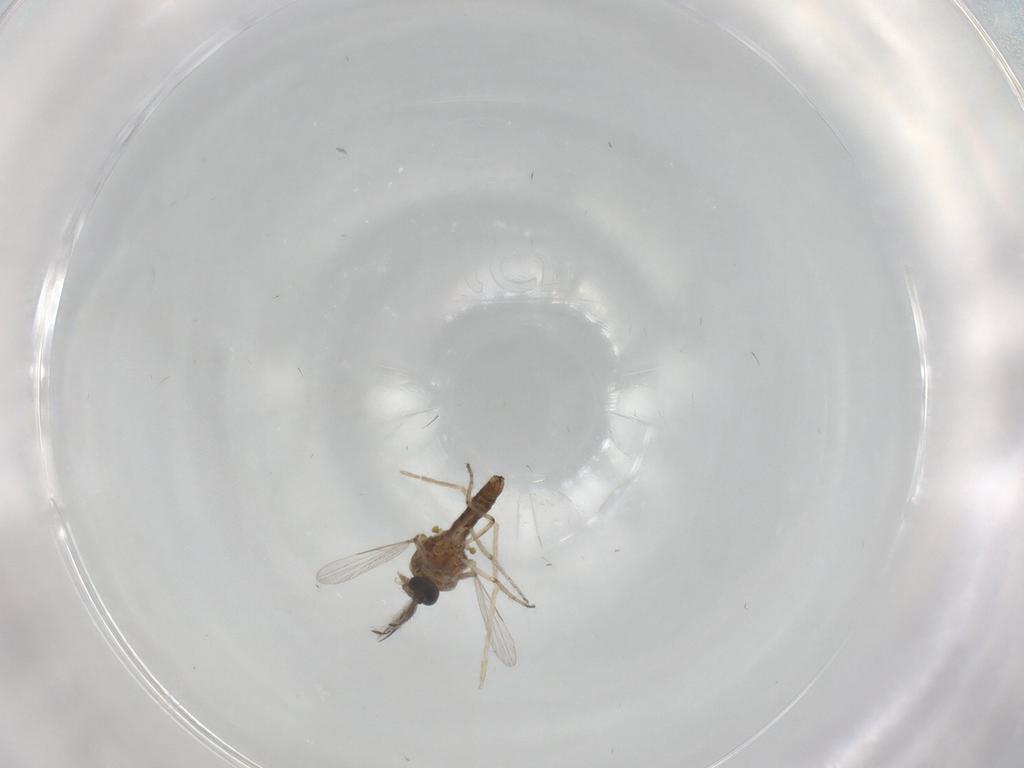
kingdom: Animalia
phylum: Arthropoda
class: Insecta
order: Diptera
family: Ceratopogonidae
